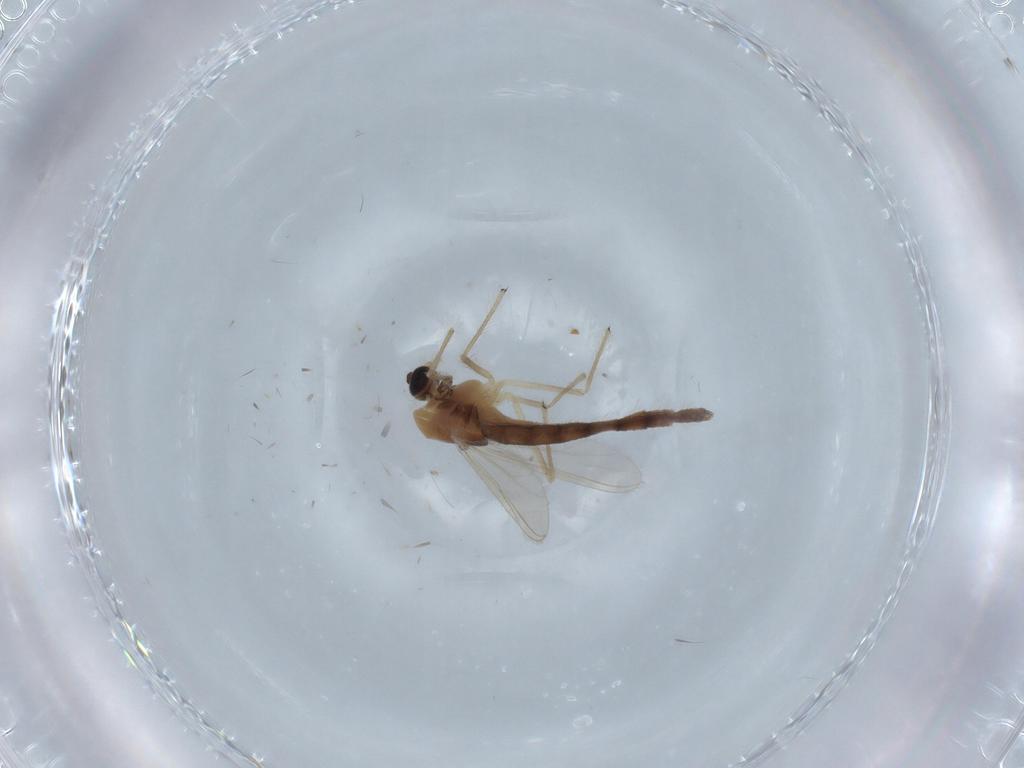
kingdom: Animalia
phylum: Arthropoda
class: Insecta
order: Diptera
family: Chironomidae
